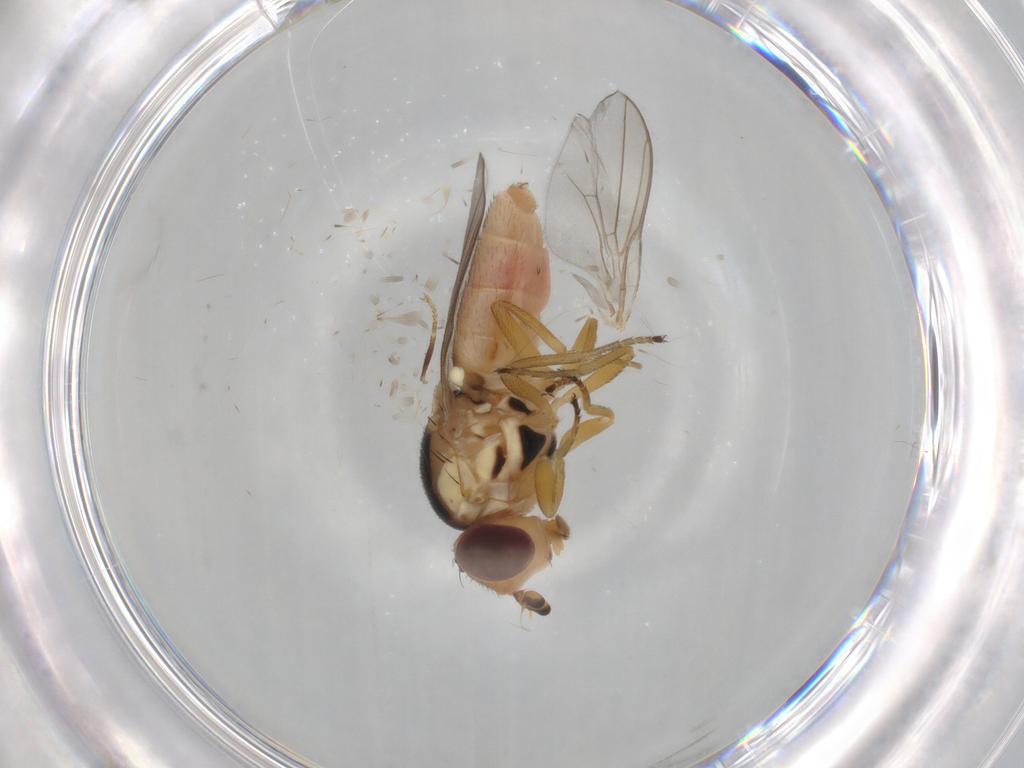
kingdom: Animalia
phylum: Arthropoda
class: Insecta
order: Diptera
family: Chloropidae
